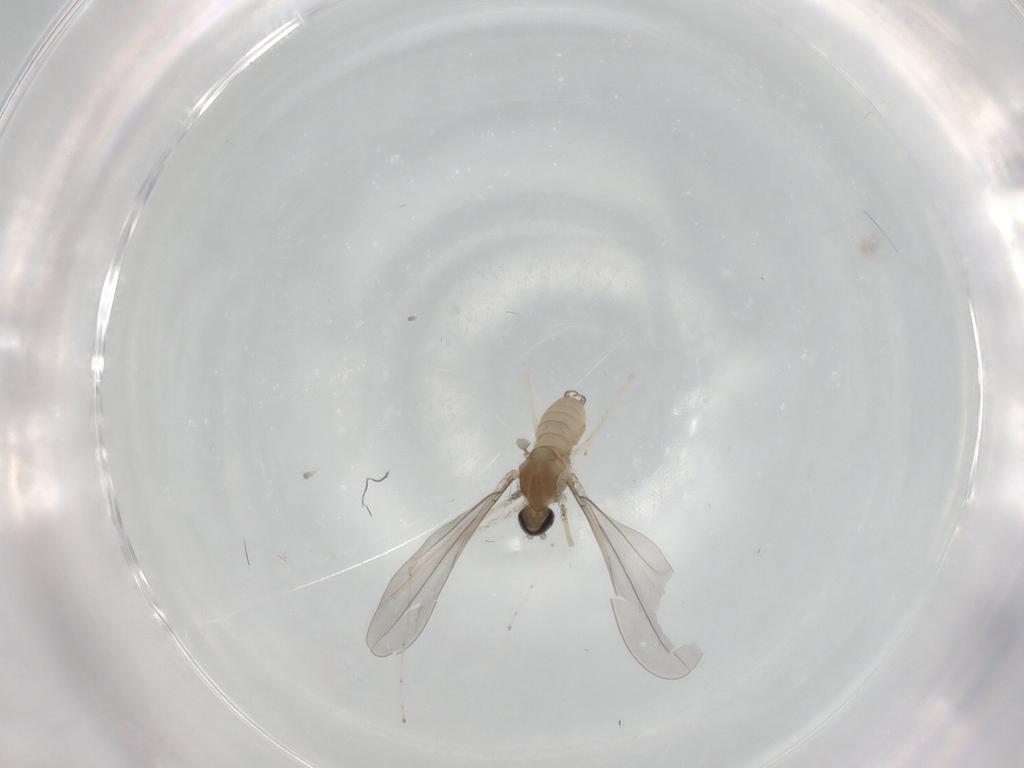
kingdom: Animalia
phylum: Arthropoda
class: Insecta
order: Diptera
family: Cecidomyiidae
